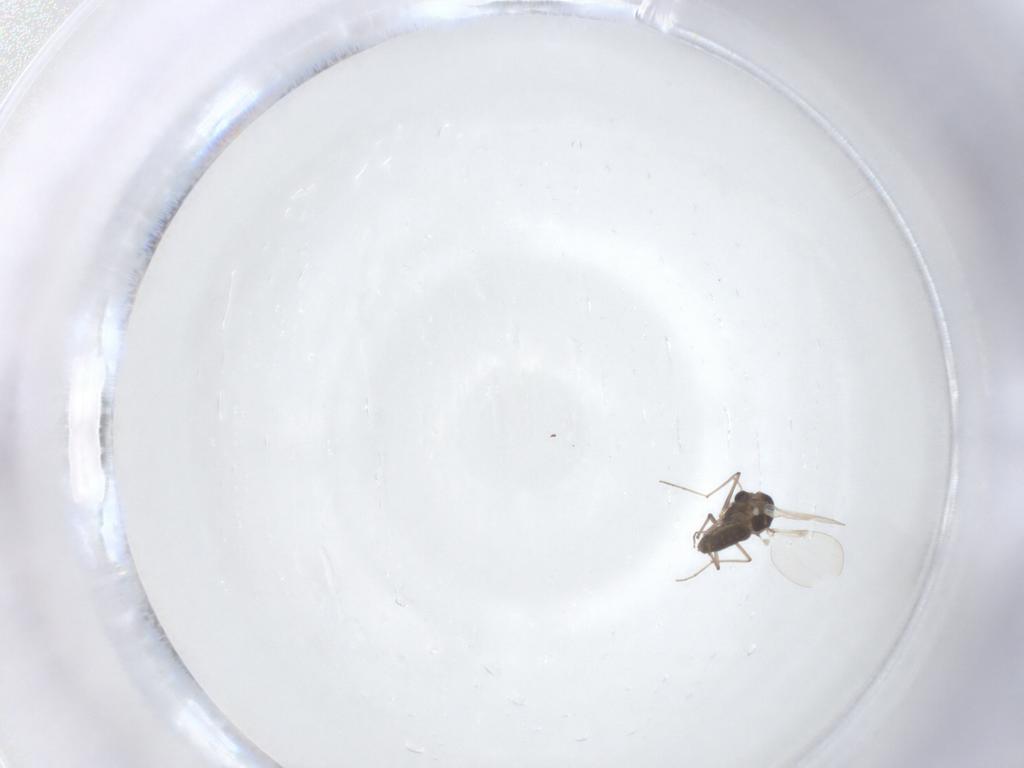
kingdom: Animalia
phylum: Arthropoda
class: Insecta
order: Diptera
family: Chironomidae
